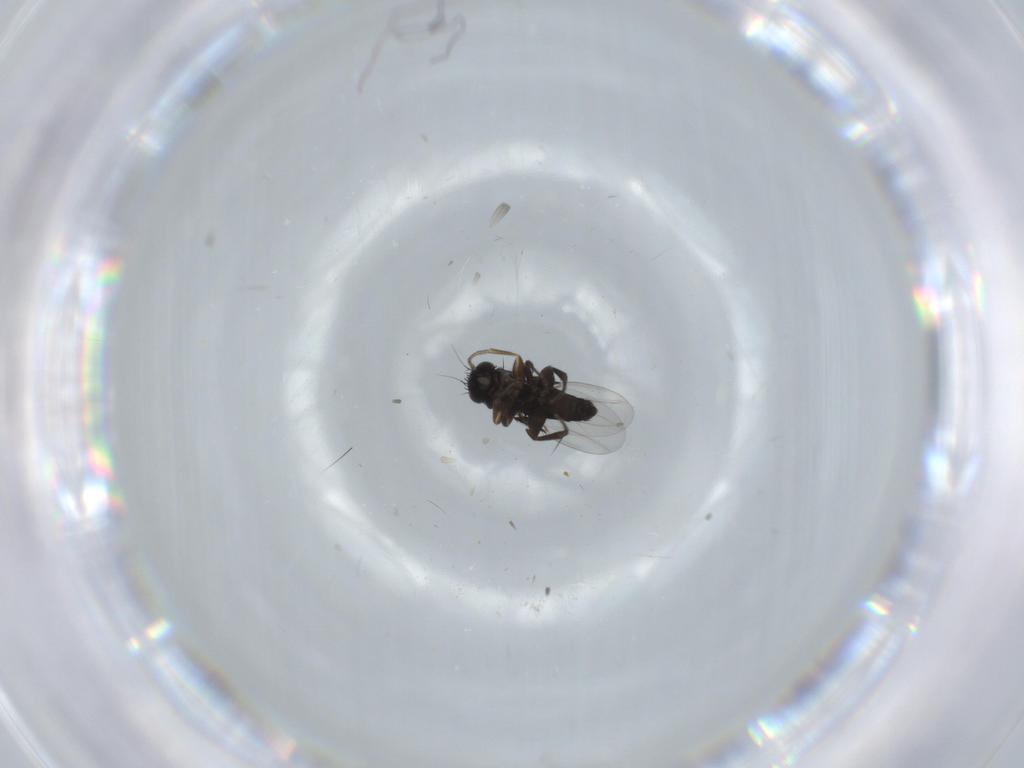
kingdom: Animalia
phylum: Arthropoda
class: Insecta
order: Diptera
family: Phoridae
